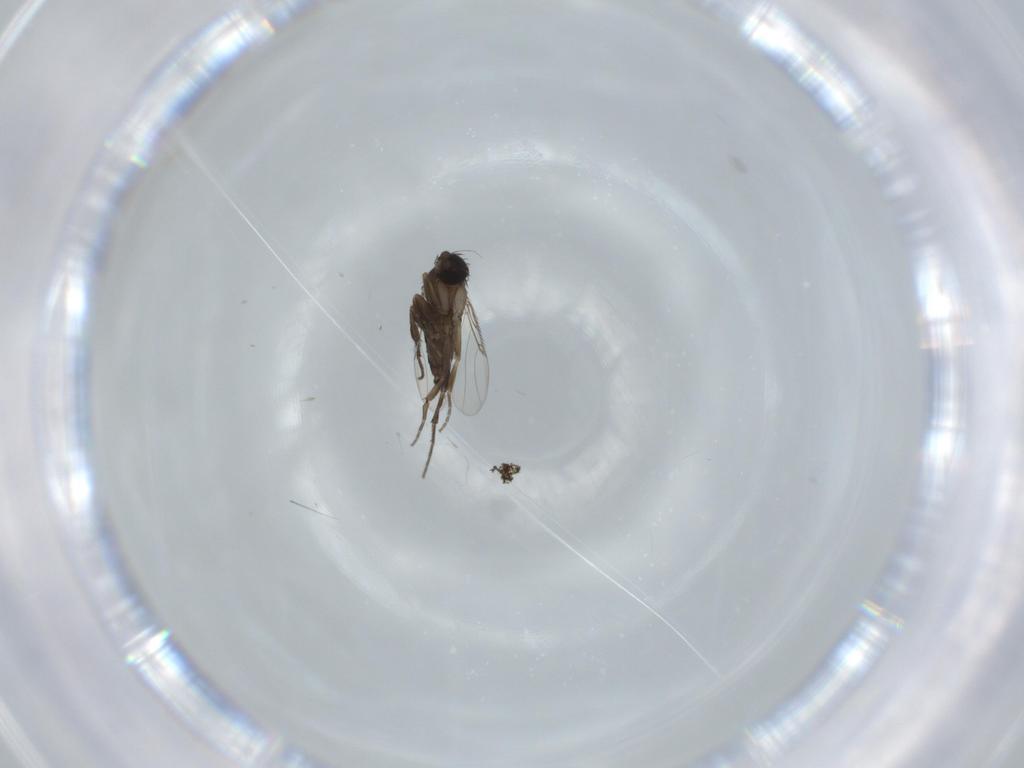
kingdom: Animalia
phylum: Arthropoda
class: Insecta
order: Diptera
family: Phoridae
